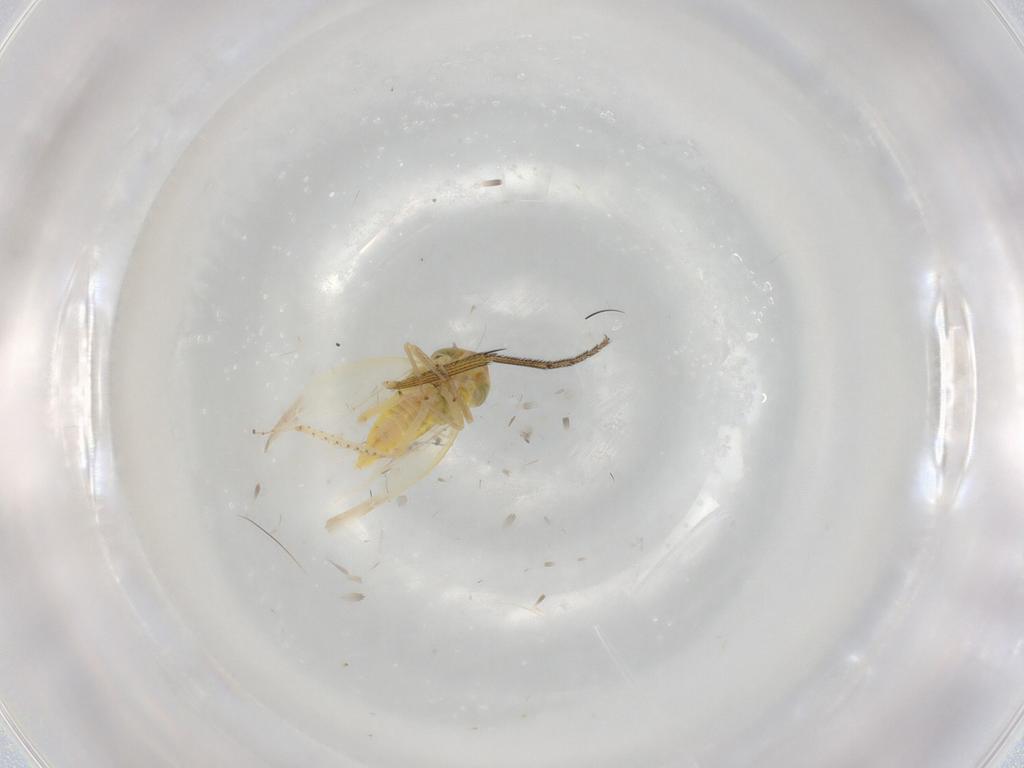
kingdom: Animalia
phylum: Arthropoda
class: Insecta
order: Hemiptera
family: Cicadellidae
